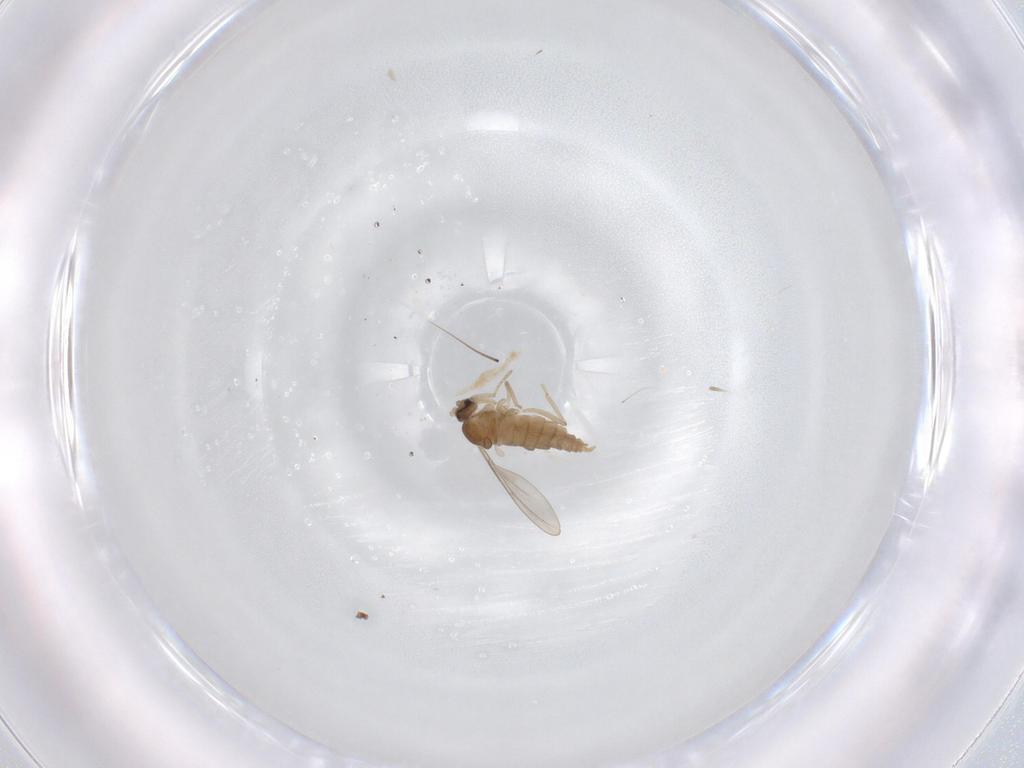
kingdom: Animalia
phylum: Arthropoda
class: Insecta
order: Diptera
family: Cecidomyiidae
